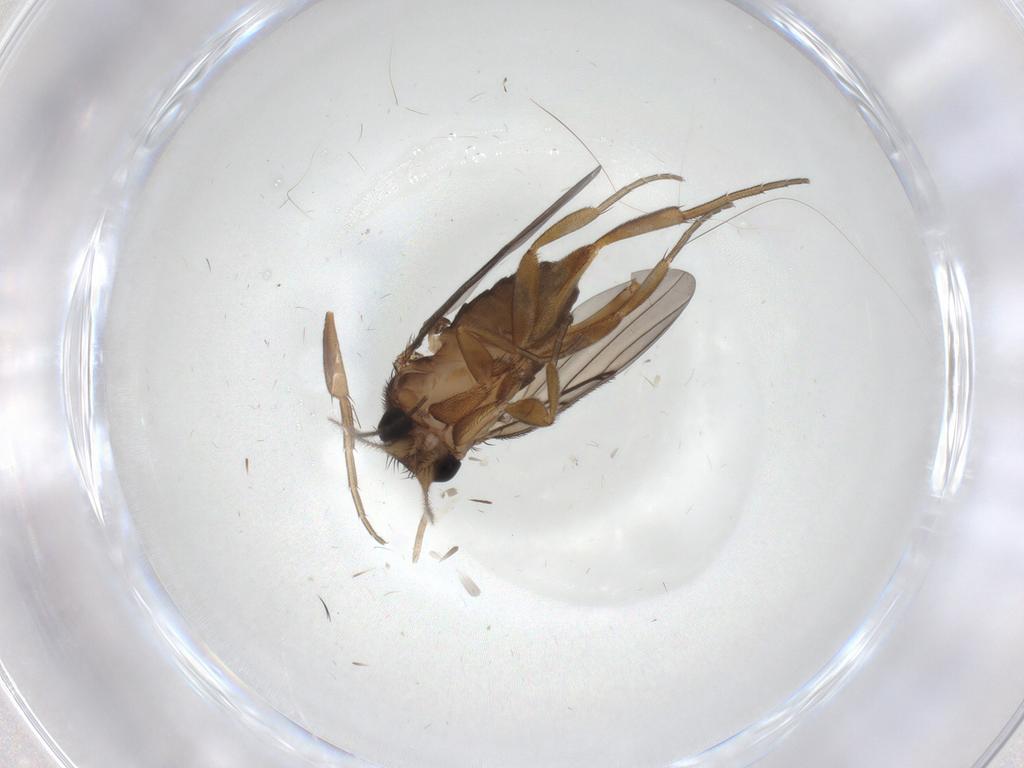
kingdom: Animalia
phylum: Arthropoda
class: Insecta
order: Diptera
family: Sciaridae
